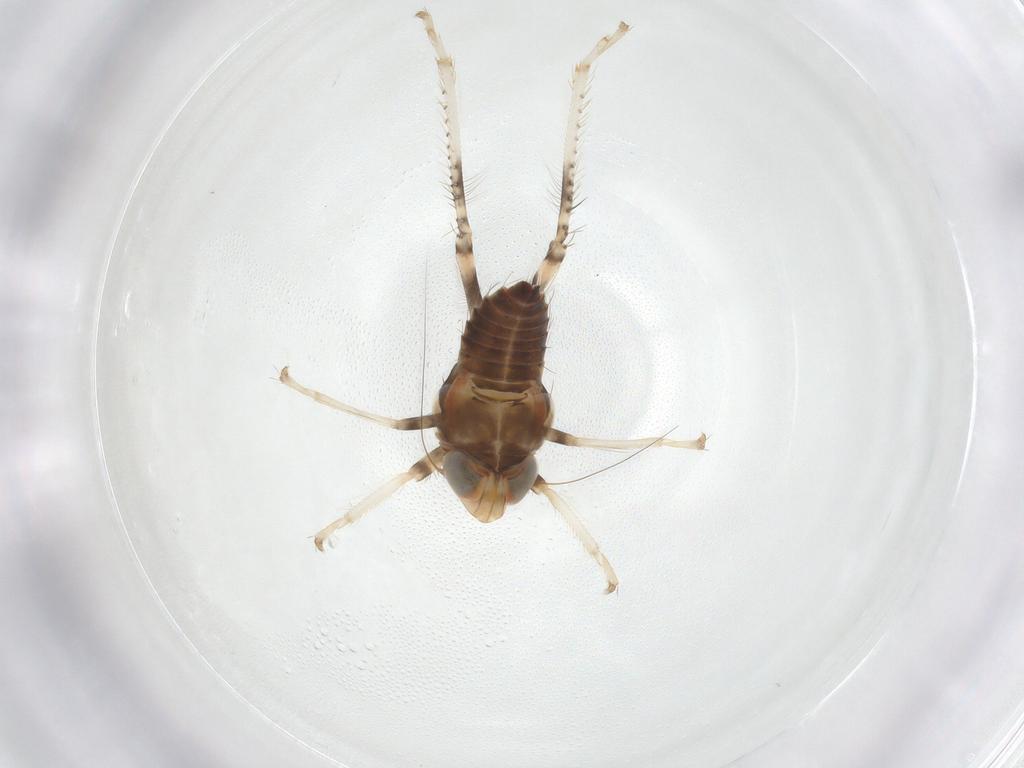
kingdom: Animalia
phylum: Arthropoda
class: Insecta
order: Hemiptera
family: Cicadellidae
